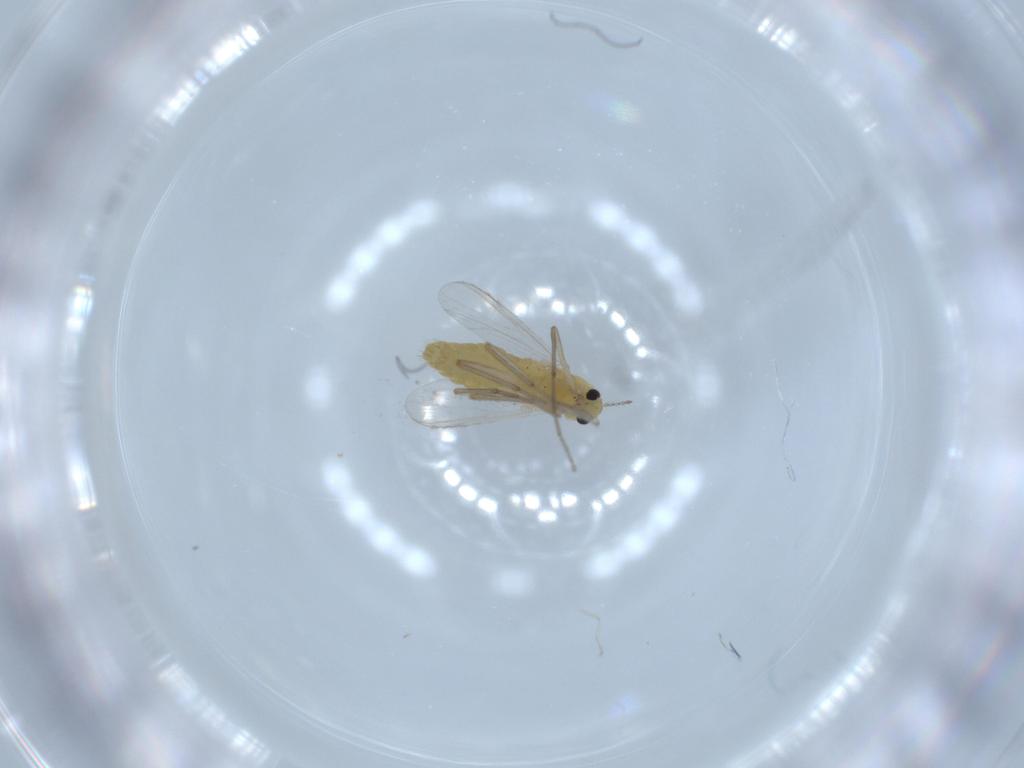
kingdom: Animalia
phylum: Arthropoda
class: Insecta
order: Diptera
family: Chironomidae
